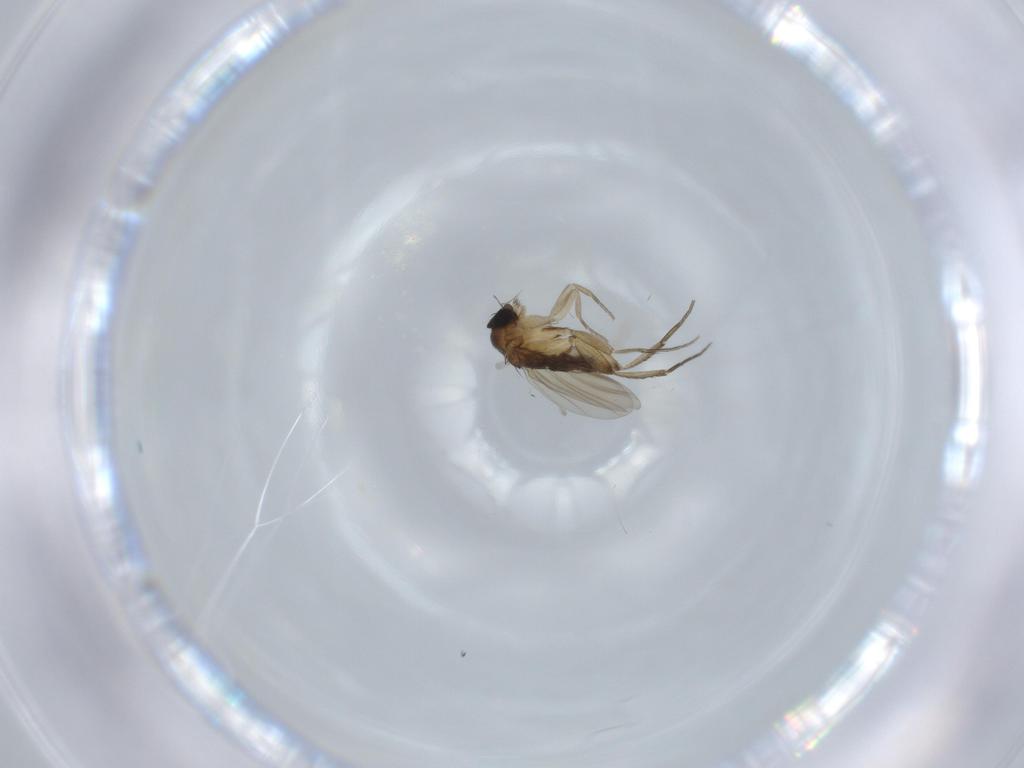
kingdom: Animalia
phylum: Arthropoda
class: Insecta
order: Diptera
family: Phoridae
